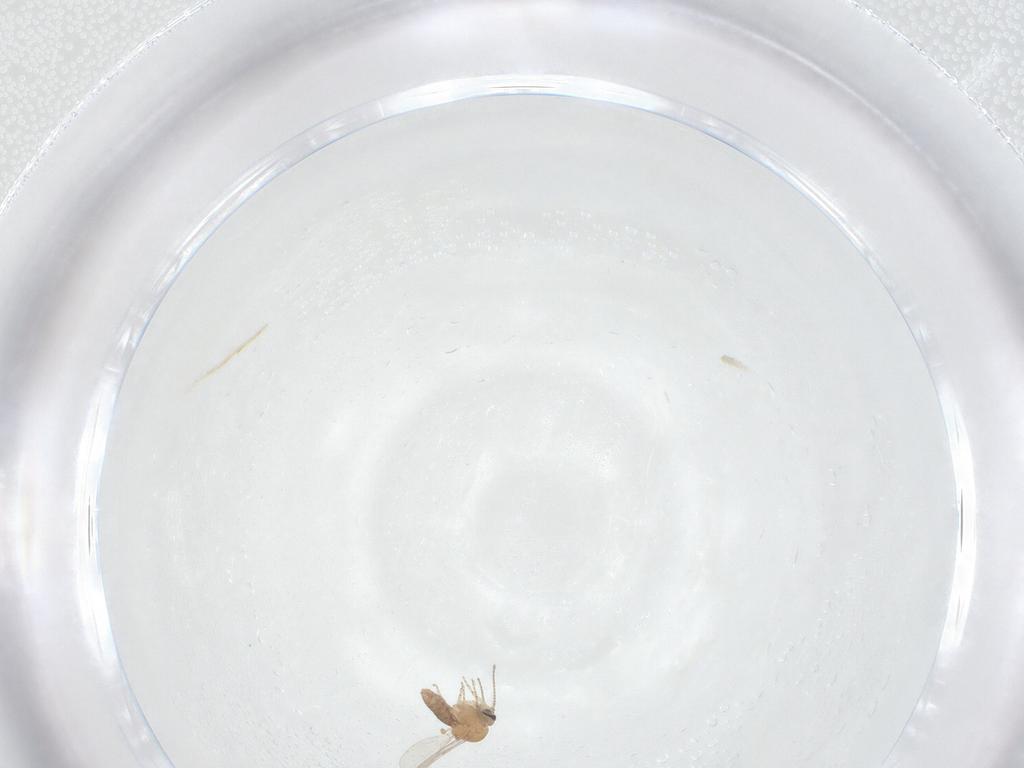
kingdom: Animalia
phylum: Arthropoda
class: Insecta
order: Diptera
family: Ceratopogonidae
